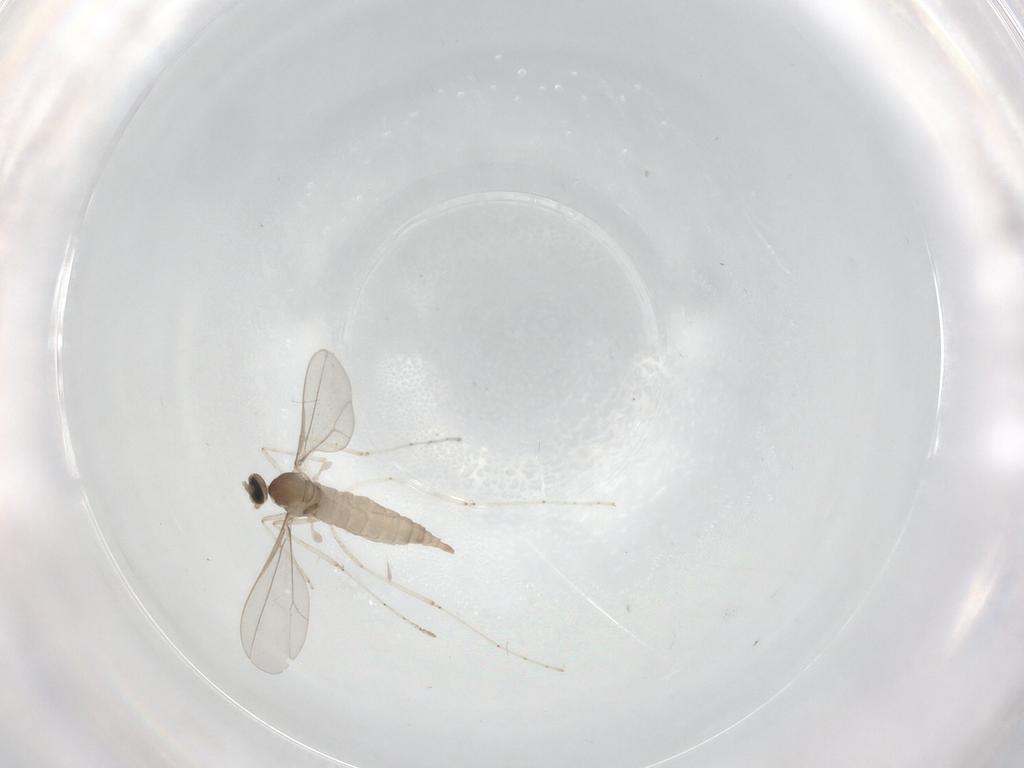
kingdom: Animalia
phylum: Arthropoda
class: Insecta
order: Diptera
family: Cecidomyiidae
